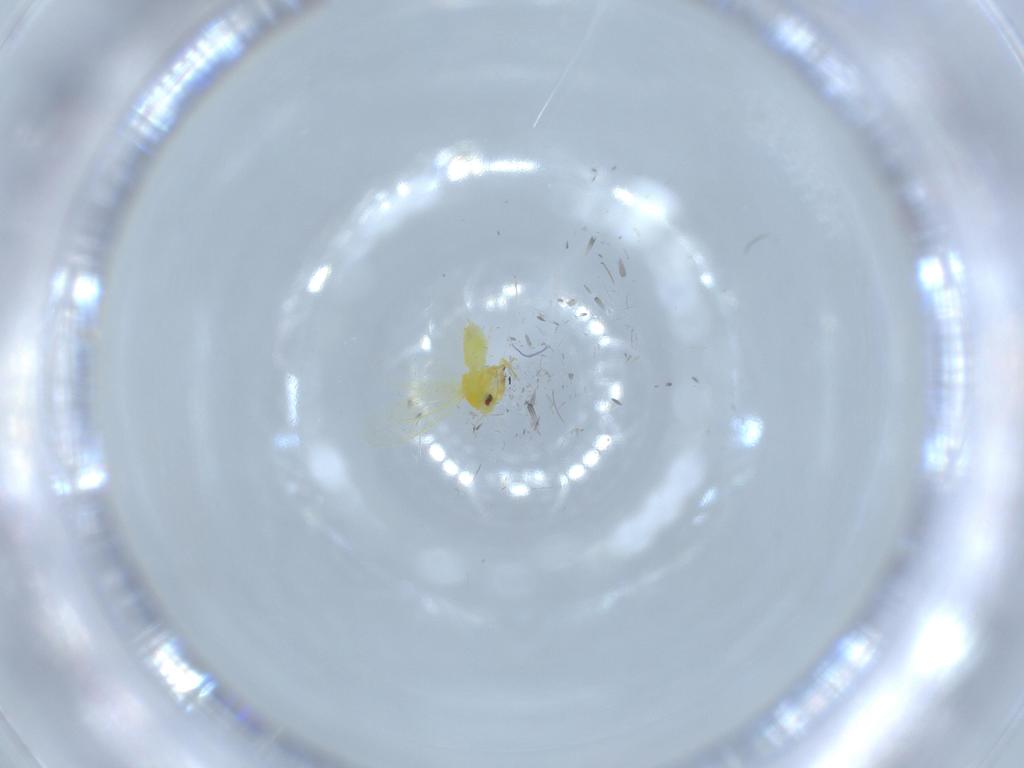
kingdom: Animalia
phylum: Arthropoda
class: Insecta
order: Hemiptera
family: Aleyrodidae
